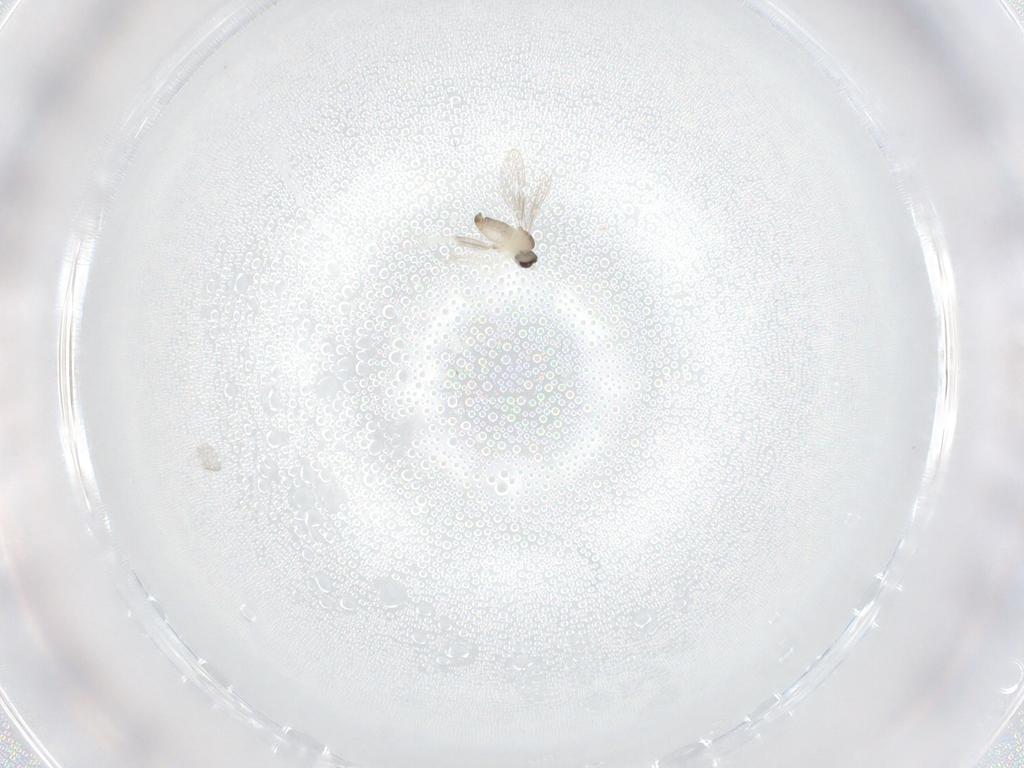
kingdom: Animalia
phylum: Arthropoda
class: Insecta
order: Diptera
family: Cecidomyiidae
